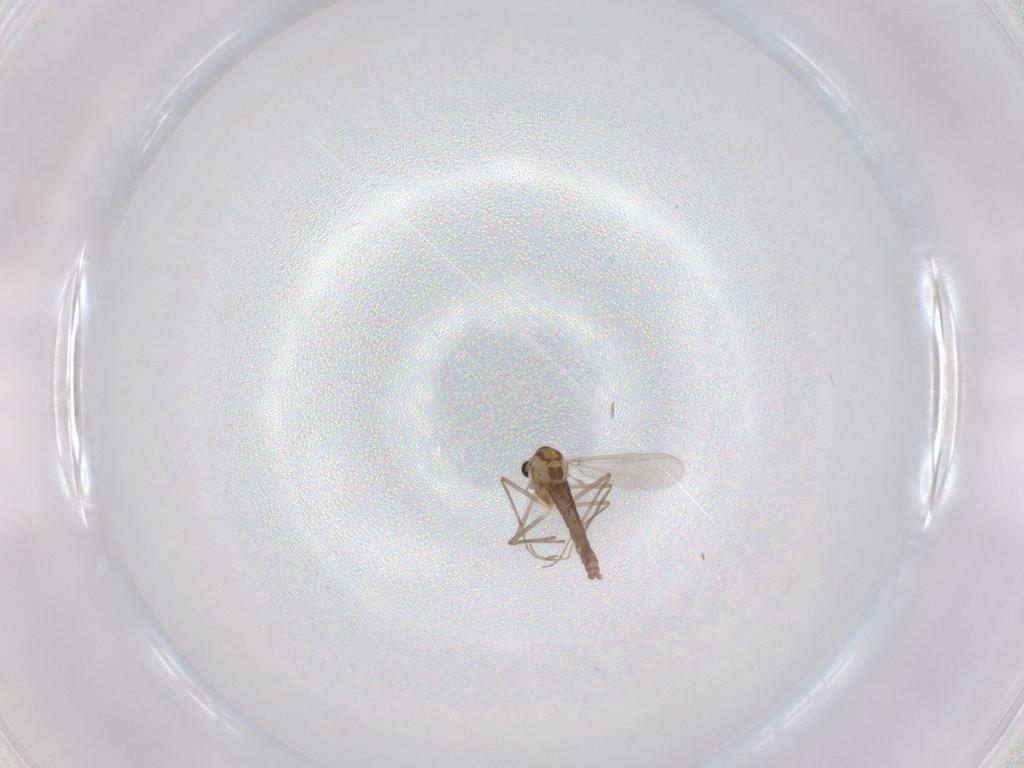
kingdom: Animalia
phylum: Arthropoda
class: Insecta
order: Diptera
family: Chironomidae
